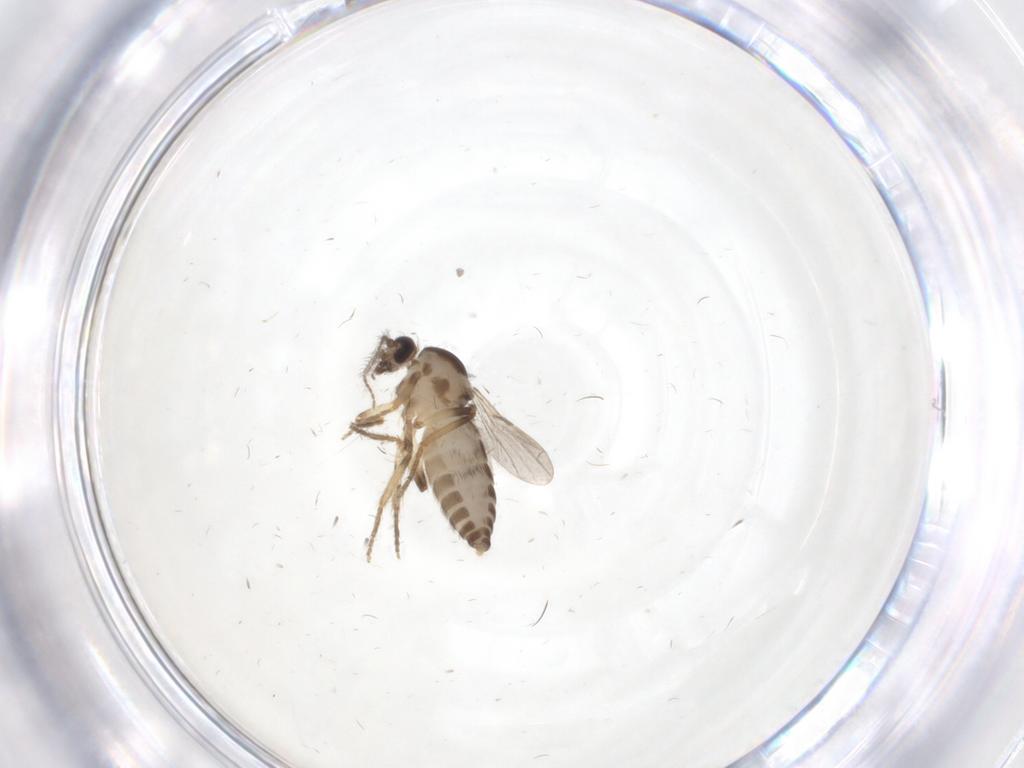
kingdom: Animalia
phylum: Arthropoda
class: Insecta
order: Diptera
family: Ceratopogonidae
